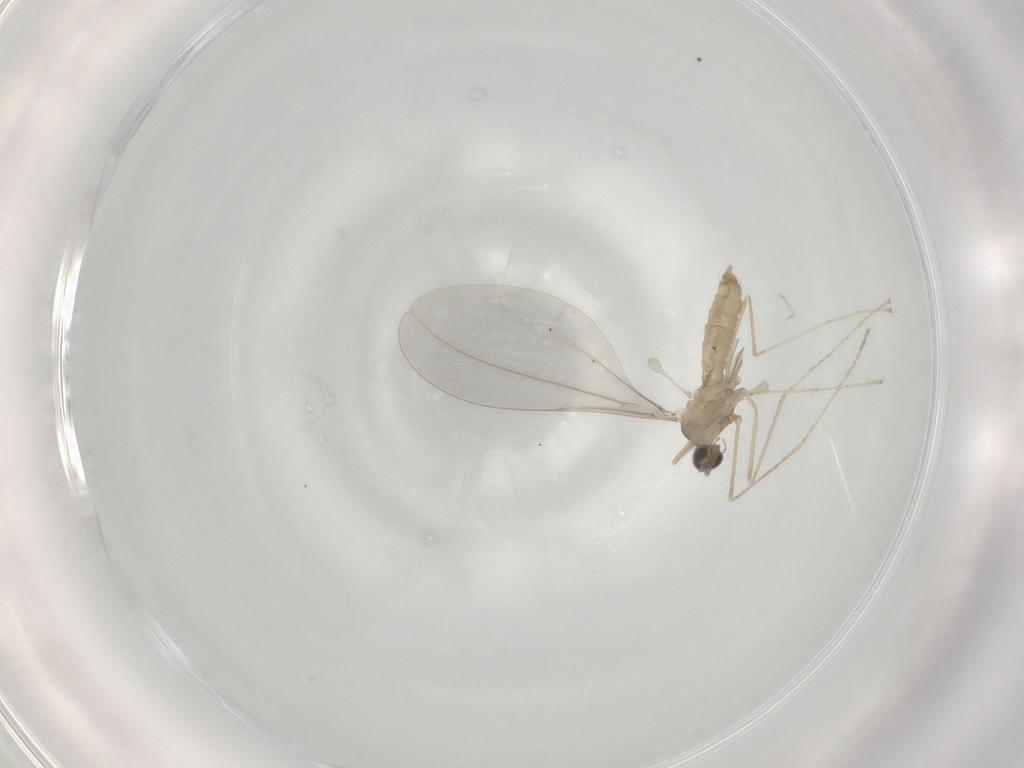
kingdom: Animalia
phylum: Arthropoda
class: Insecta
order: Diptera
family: Cecidomyiidae
